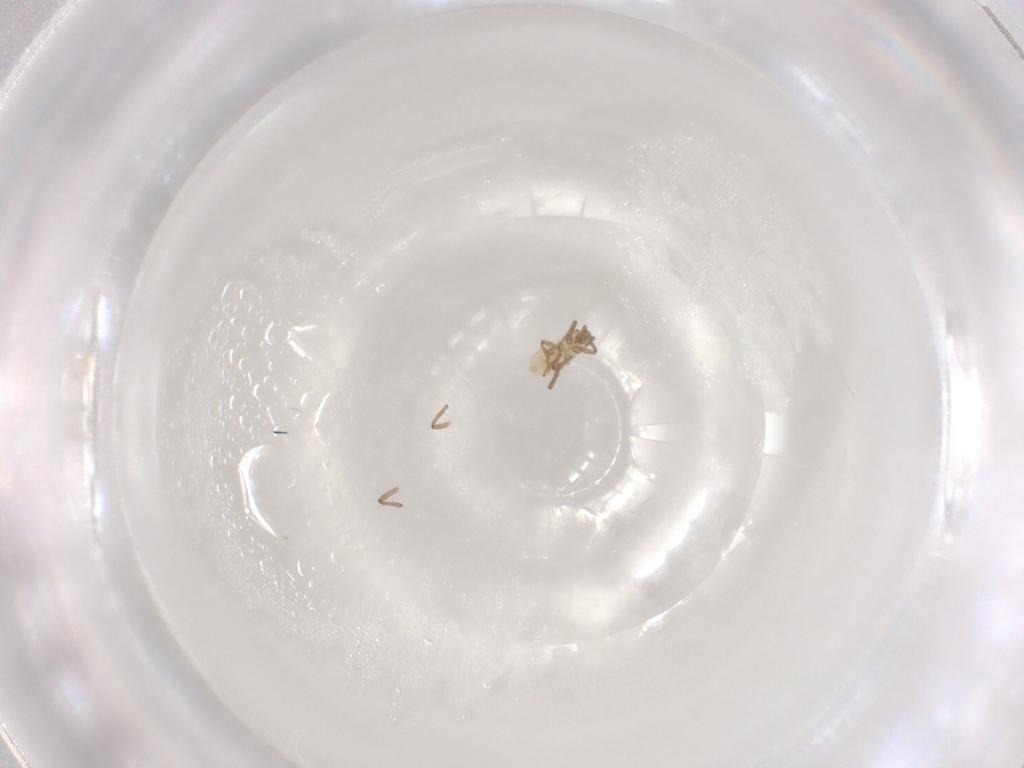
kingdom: Animalia
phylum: Arthropoda
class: Insecta
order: Hemiptera
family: Aphididae
